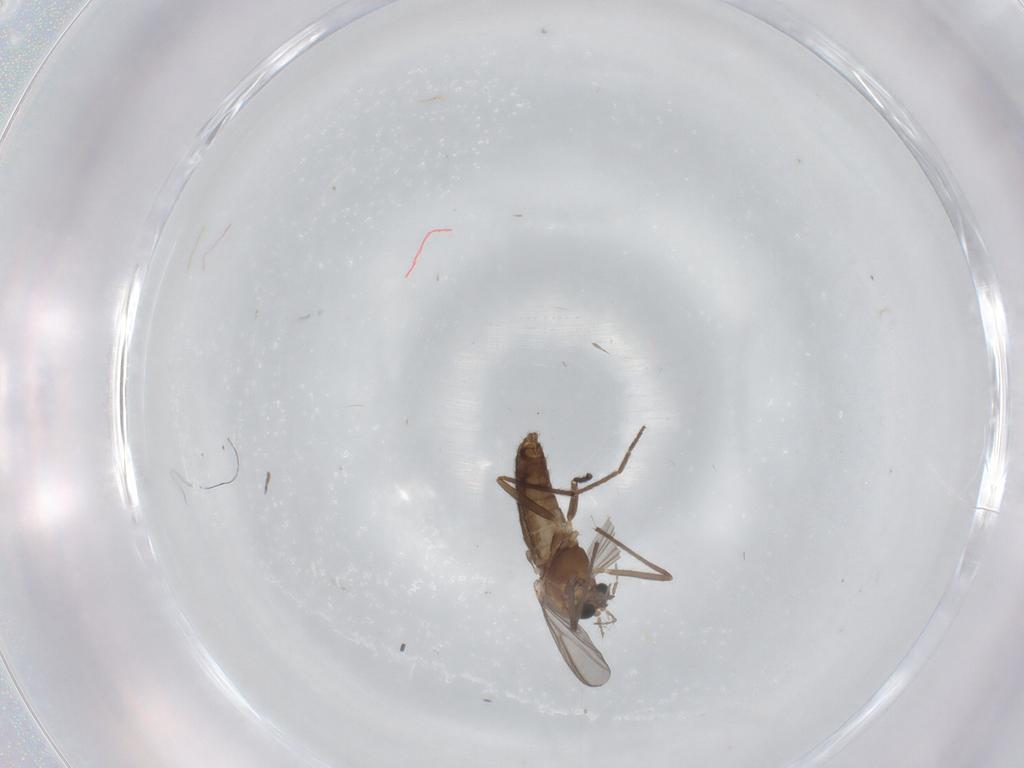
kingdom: Animalia
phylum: Arthropoda
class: Insecta
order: Diptera
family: Chironomidae
